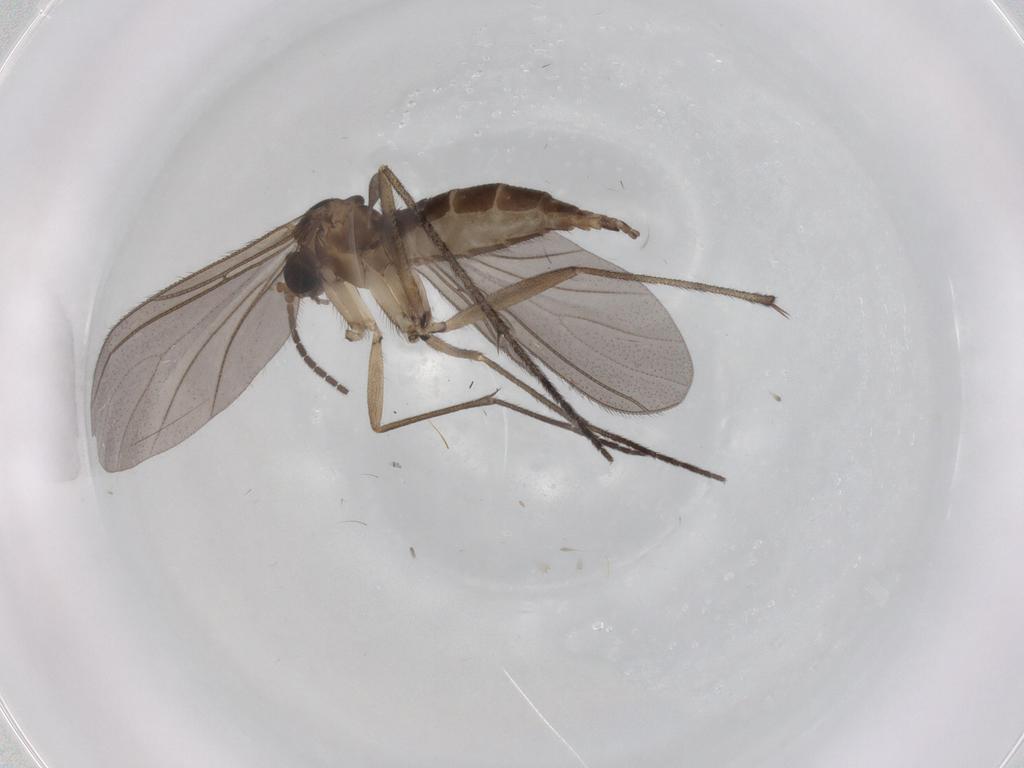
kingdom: Animalia
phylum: Arthropoda
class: Insecta
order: Diptera
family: Sciaridae
